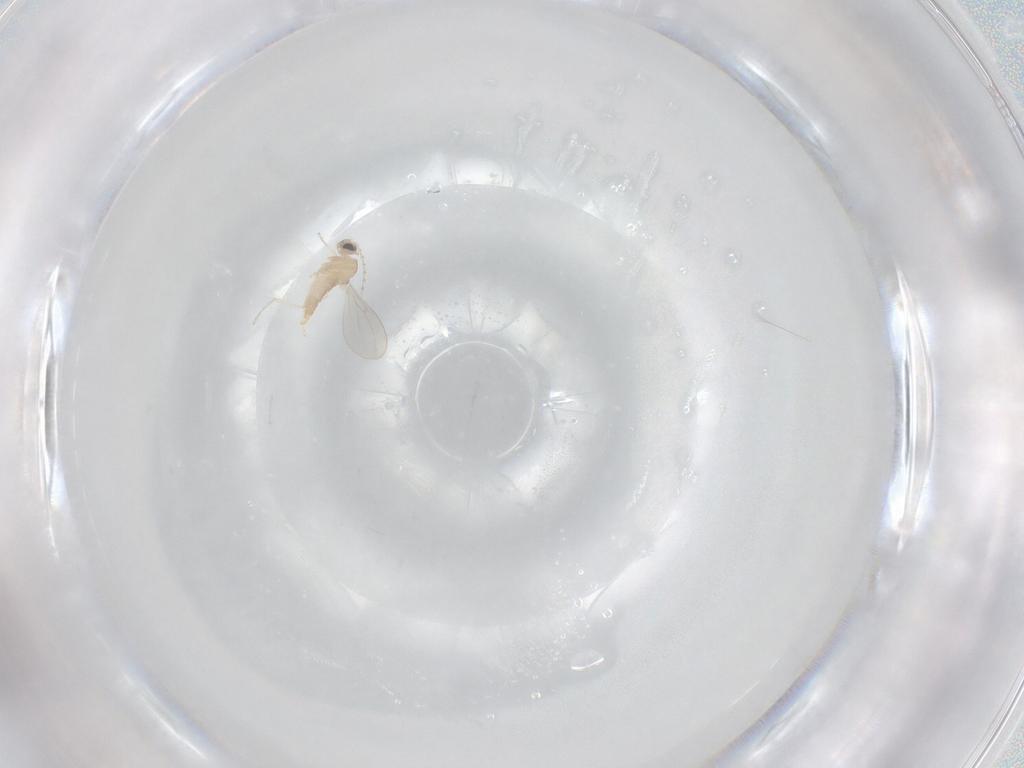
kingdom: Animalia
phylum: Arthropoda
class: Insecta
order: Diptera
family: Cecidomyiidae
